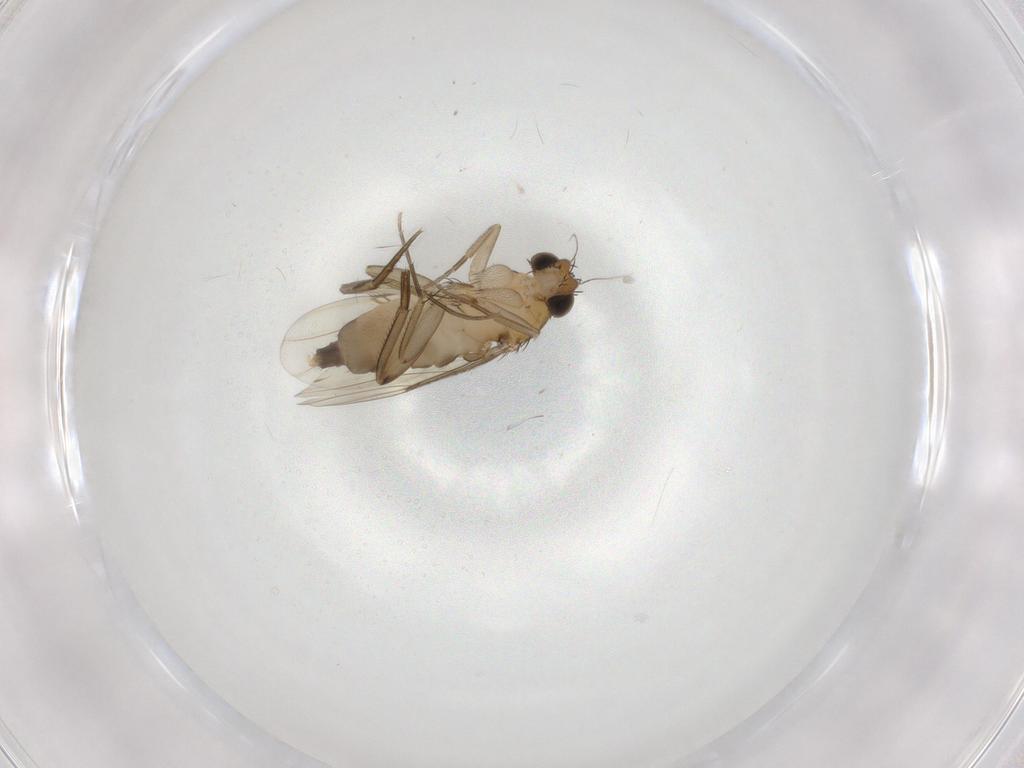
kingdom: Animalia
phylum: Arthropoda
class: Insecta
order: Diptera
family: Phoridae
